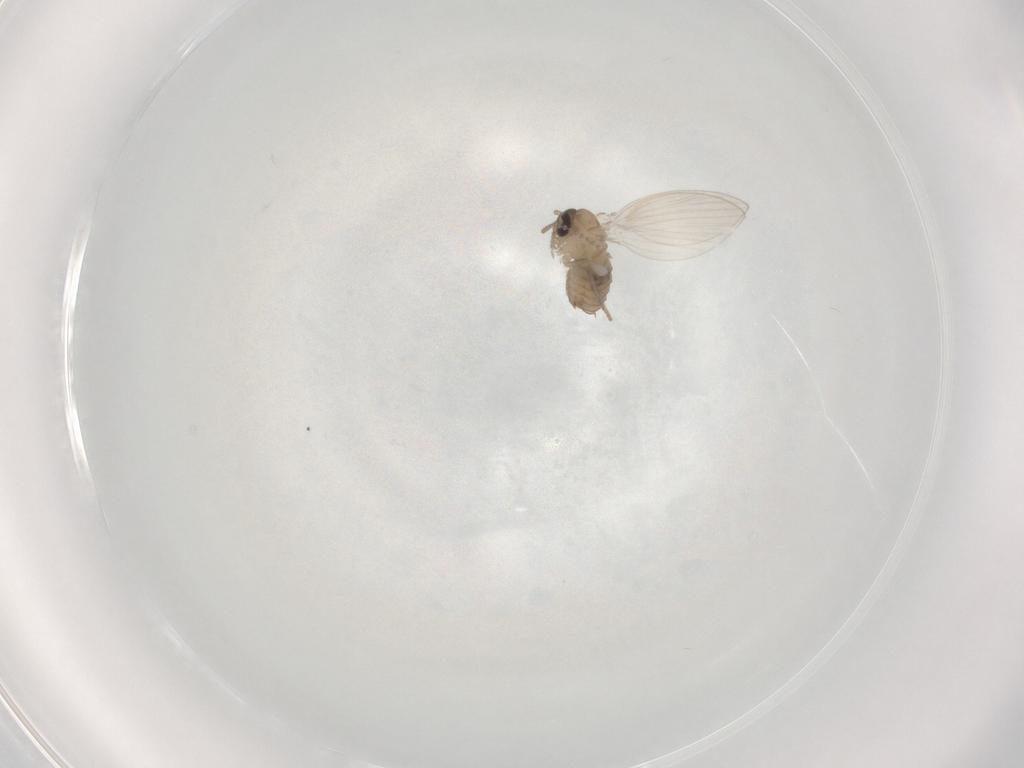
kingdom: Animalia
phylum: Arthropoda
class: Insecta
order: Diptera
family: Psychodidae
